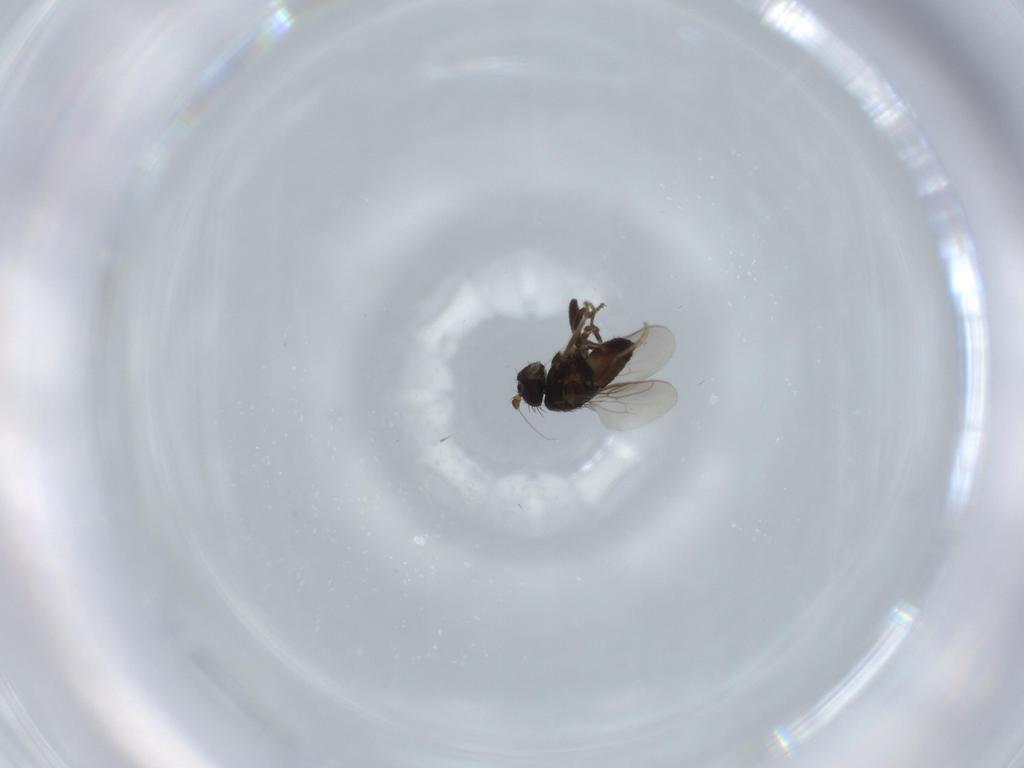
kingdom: Animalia
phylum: Arthropoda
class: Insecta
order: Diptera
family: Sphaeroceridae
